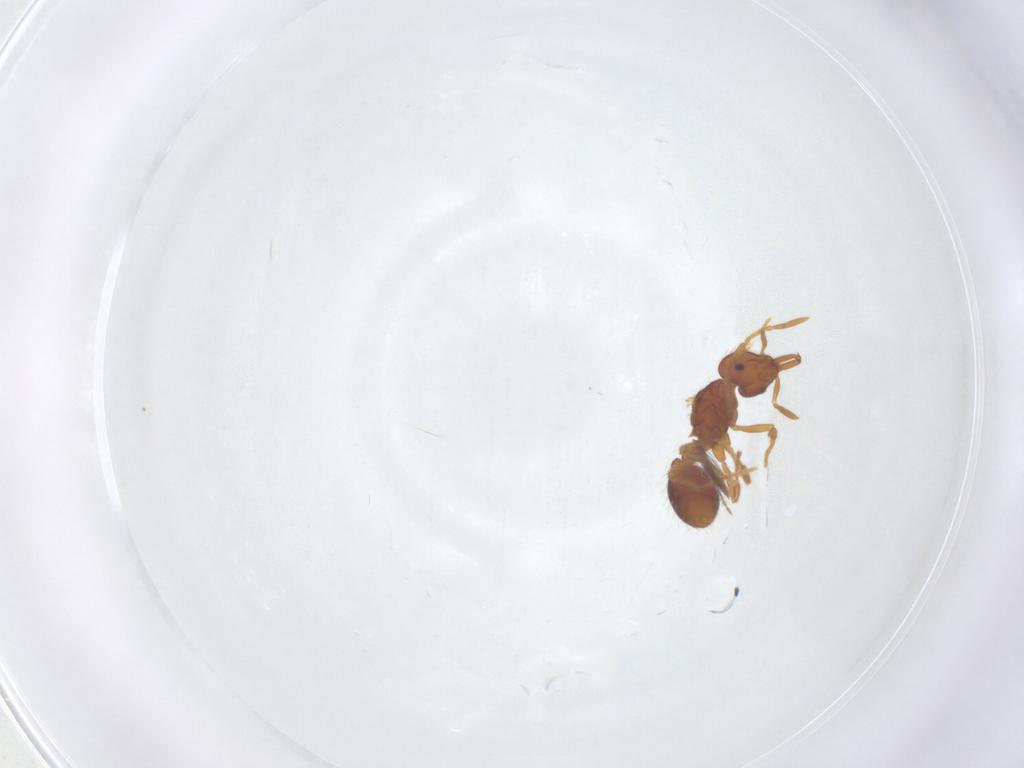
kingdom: Animalia
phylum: Arthropoda
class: Insecta
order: Hymenoptera
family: Formicidae
